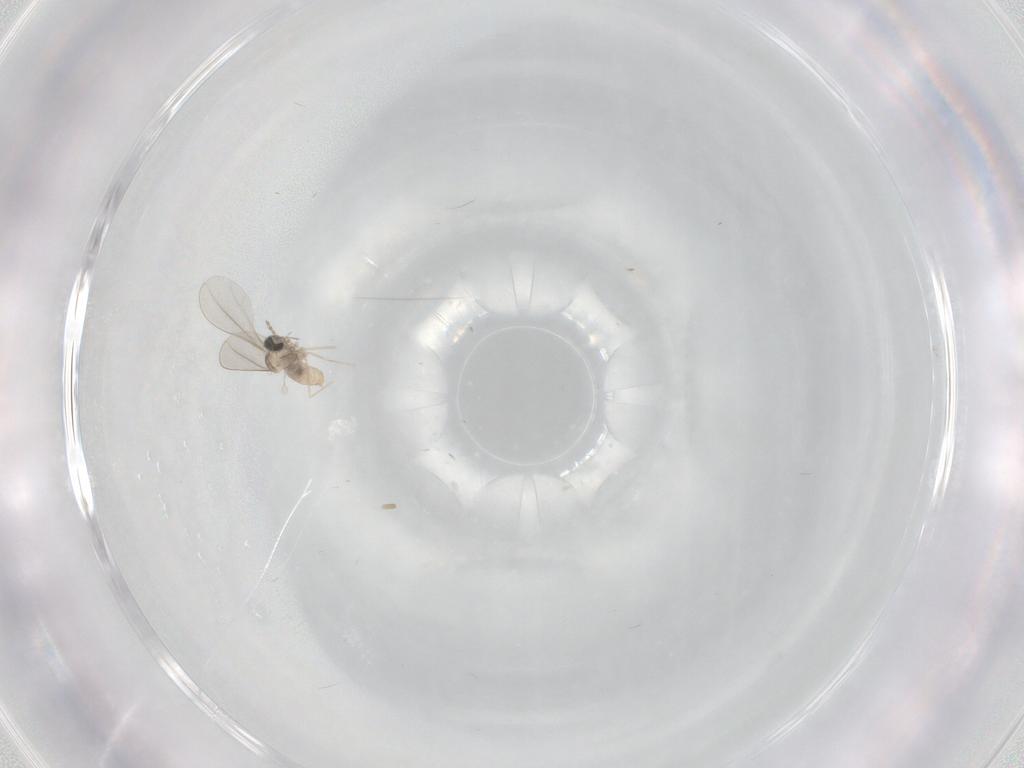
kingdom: Animalia
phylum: Arthropoda
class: Insecta
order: Diptera
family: Cecidomyiidae
